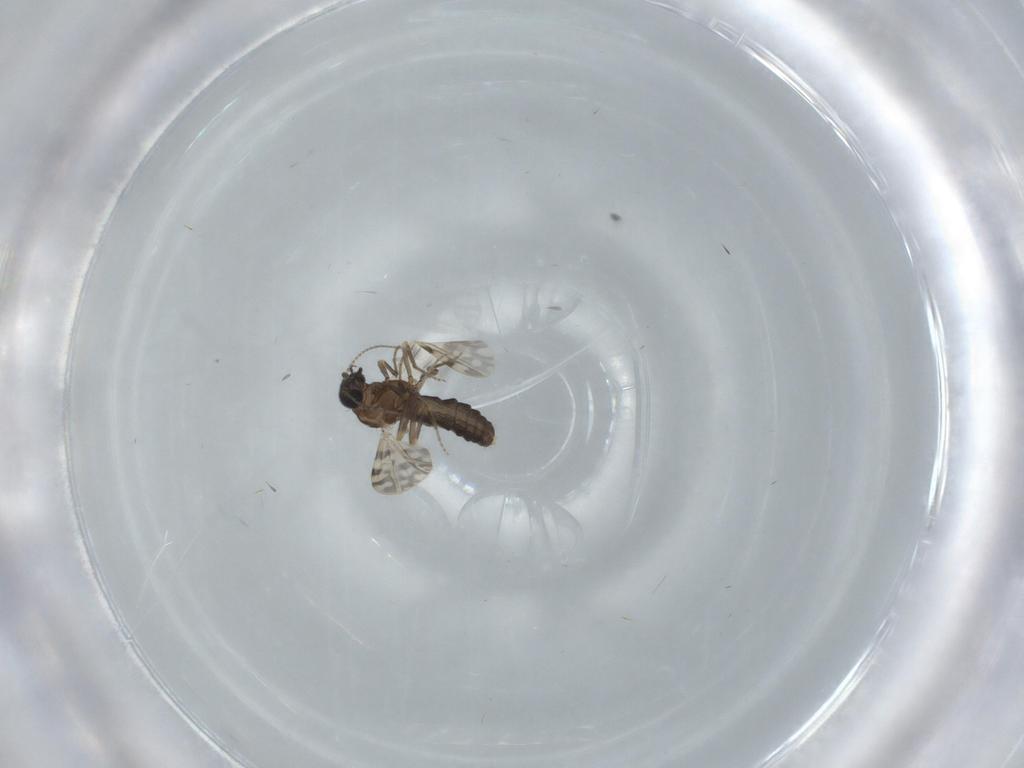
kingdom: Animalia
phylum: Arthropoda
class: Insecta
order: Diptera
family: Ceratopogonidae
